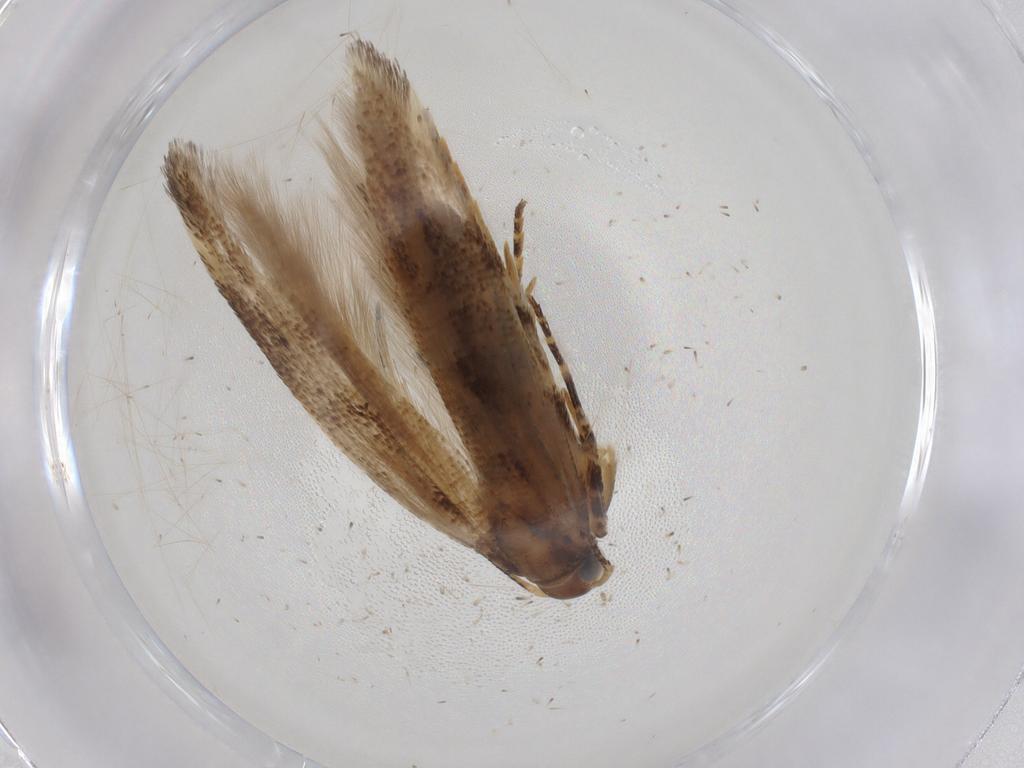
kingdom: Animalia
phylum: Arthropoda
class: Insecta
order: Lepidoptera
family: Gelechiidae
